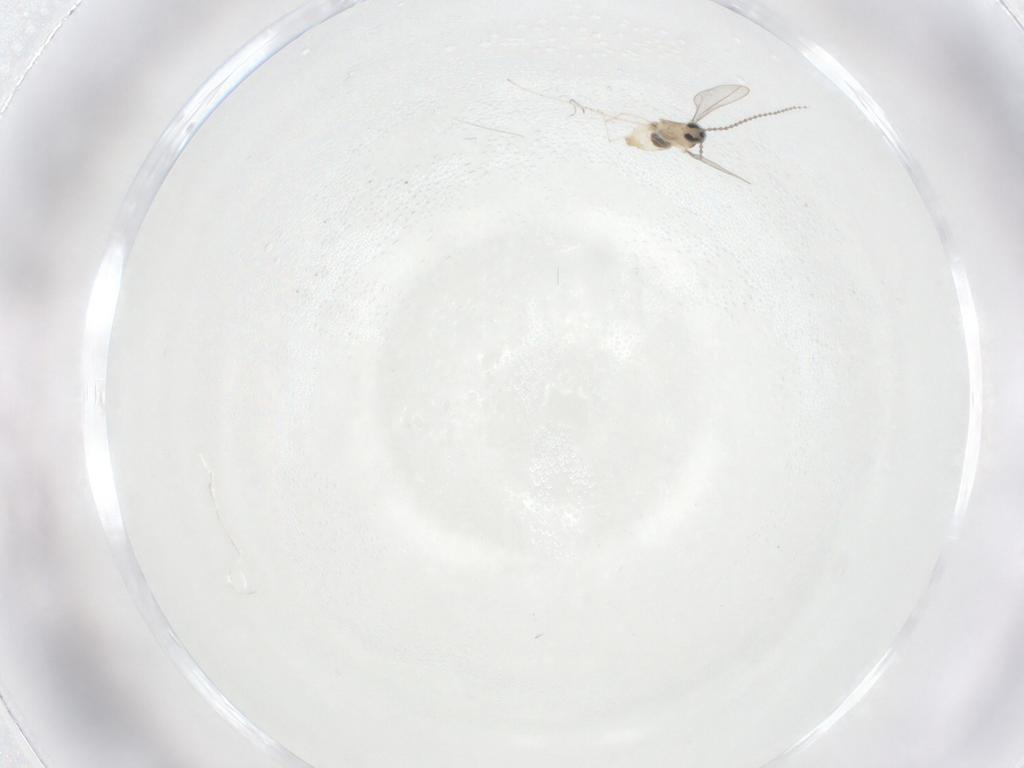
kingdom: Animalia
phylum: Arthropoda
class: Insecta
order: Diptera
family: Cecidomyiidae
